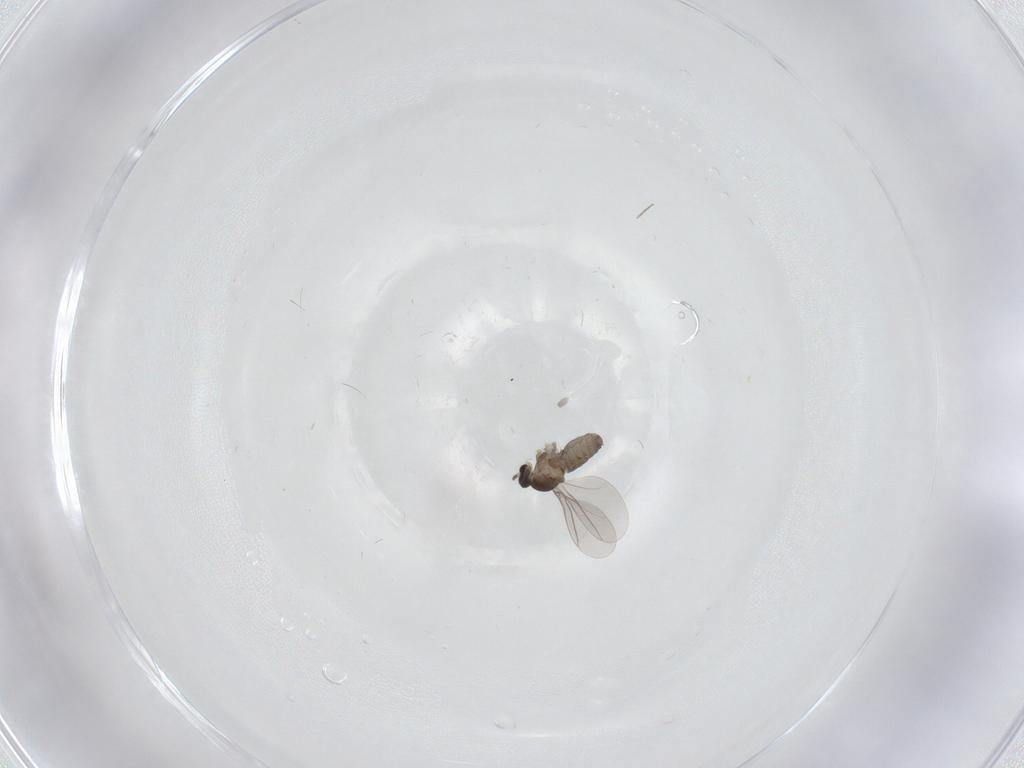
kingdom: Animalia
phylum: Arthropoda
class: Insecta
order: Diptera
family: Cecidomyiidae
